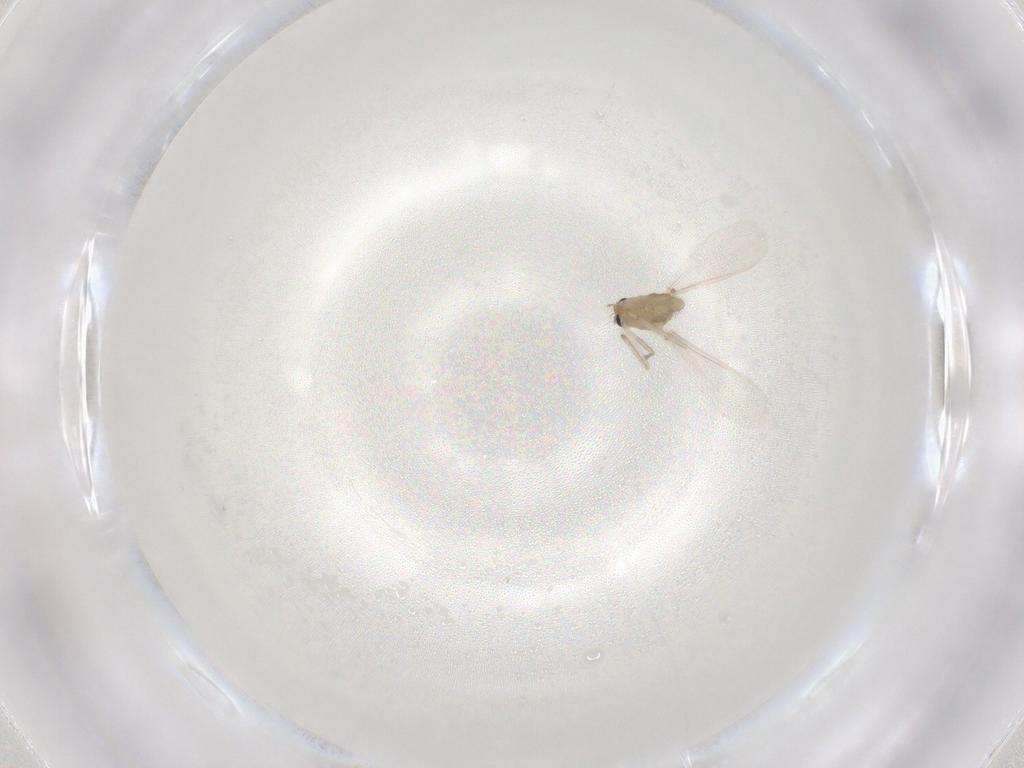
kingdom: Animalia
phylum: Arthropoda
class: Insecta
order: Diptera
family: Chironomidae
